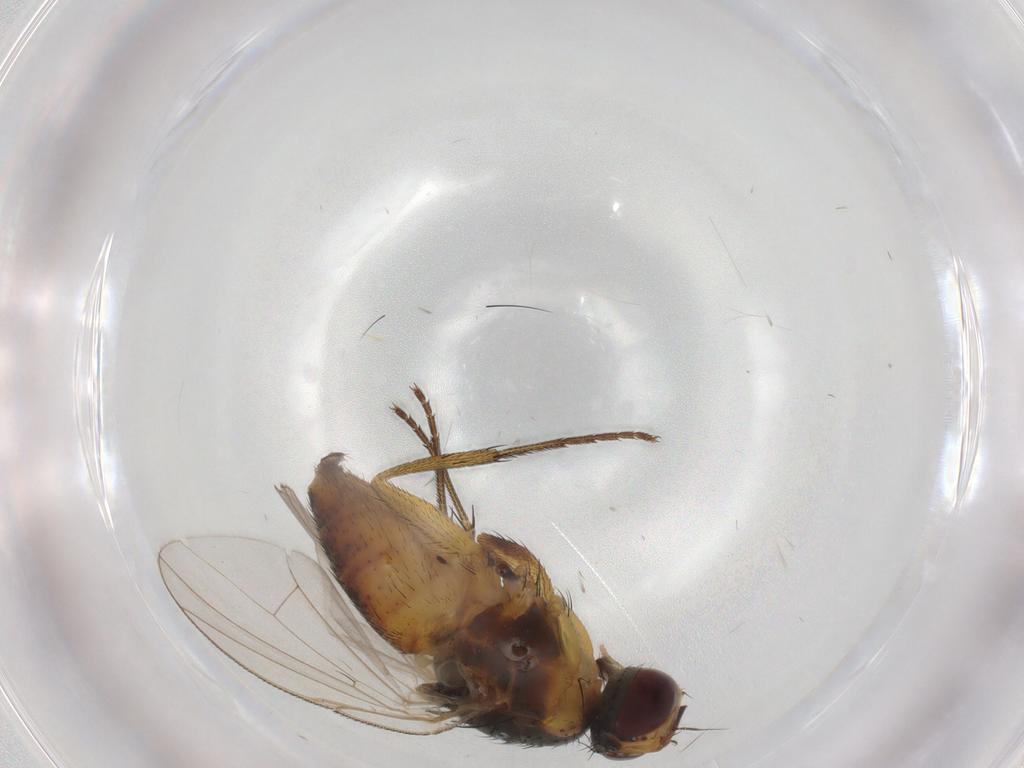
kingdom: Animalia
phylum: Arthropoda
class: Insecta
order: Diptera
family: Muscidae
